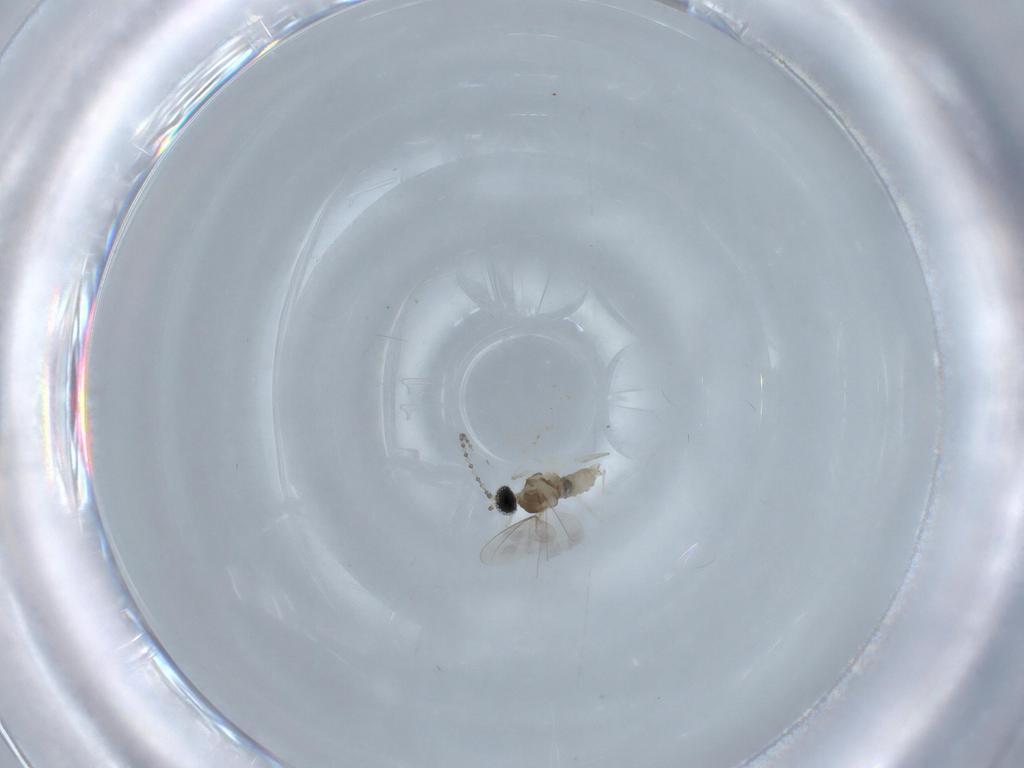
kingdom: Animalia
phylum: Arthropoda
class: Insecta
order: Diptera
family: Cecidomyiidae
